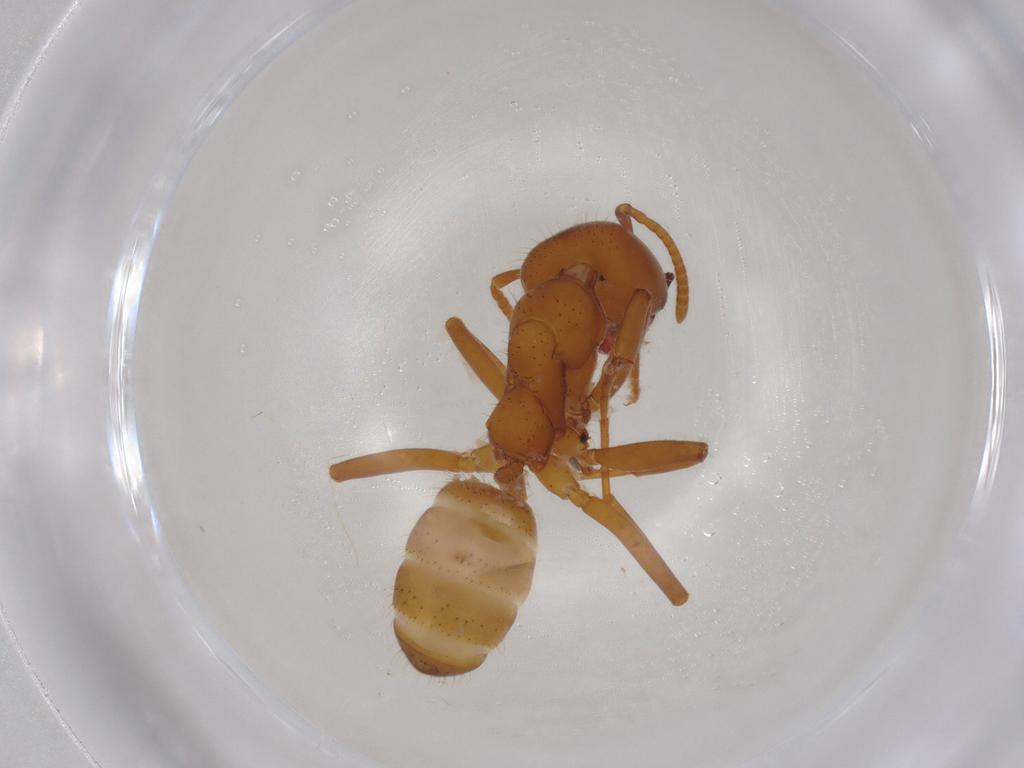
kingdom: Animalia
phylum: Arthropoda
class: Insecta
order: Hymenoptera
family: Formicidae
